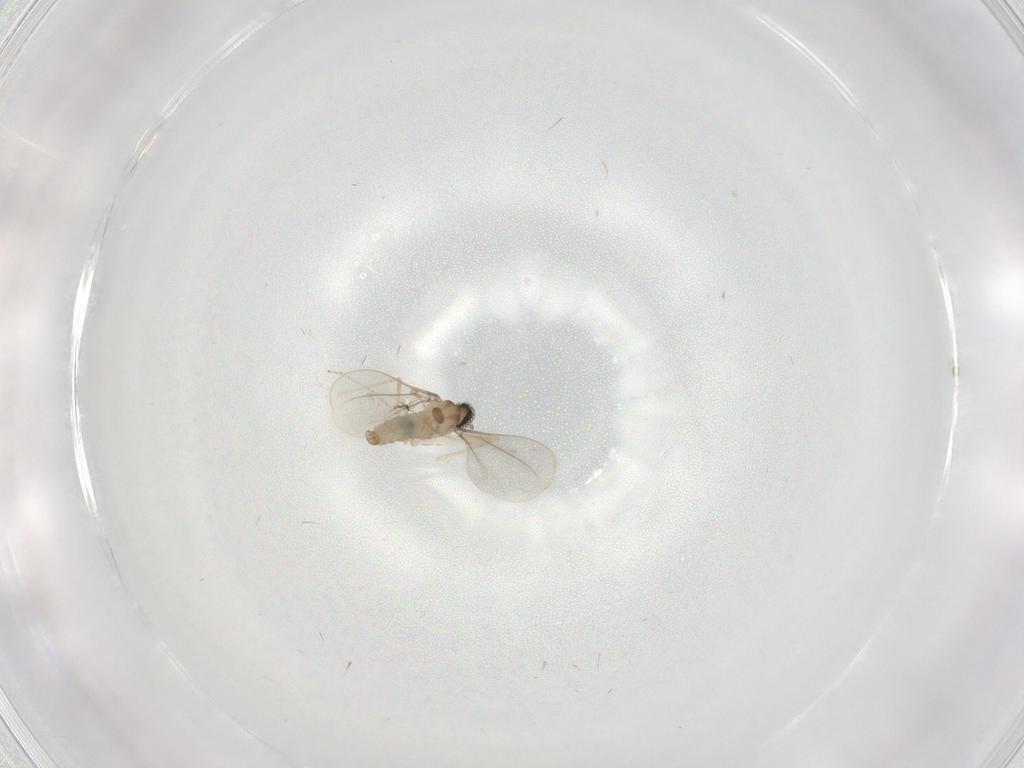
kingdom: Animalia
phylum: Arthropoda
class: Insecta
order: Diptera
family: Cecidomyiidae
